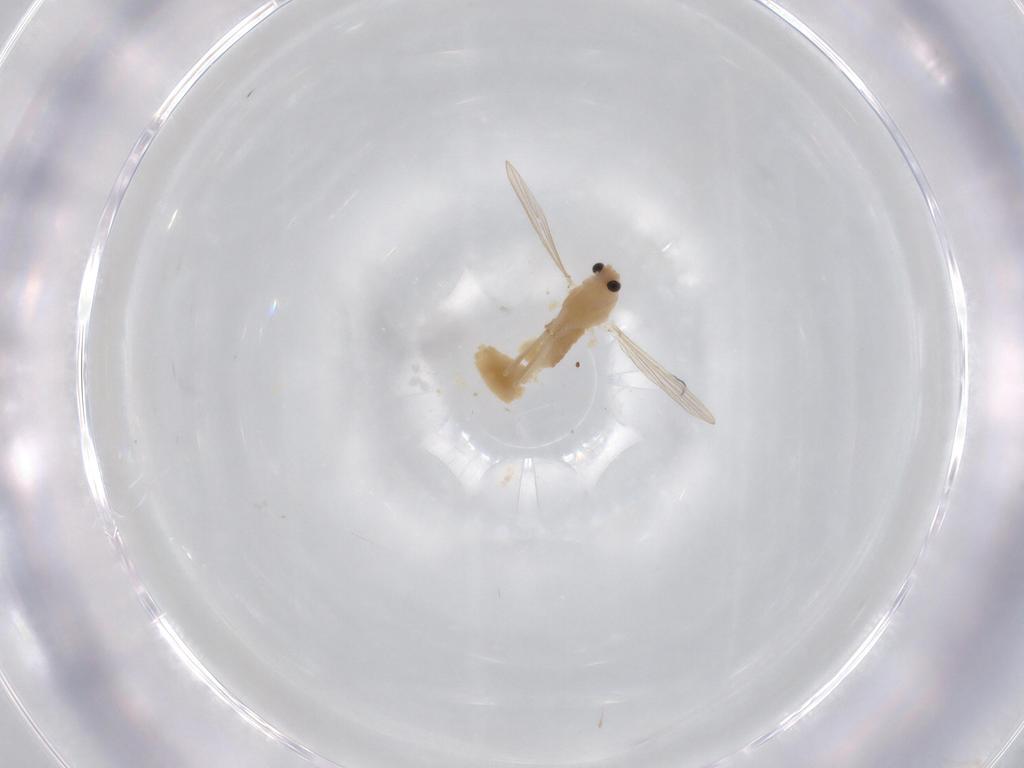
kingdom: Animalia
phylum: Arthropoda
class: Insecta
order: Diptera
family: Chironomidae
